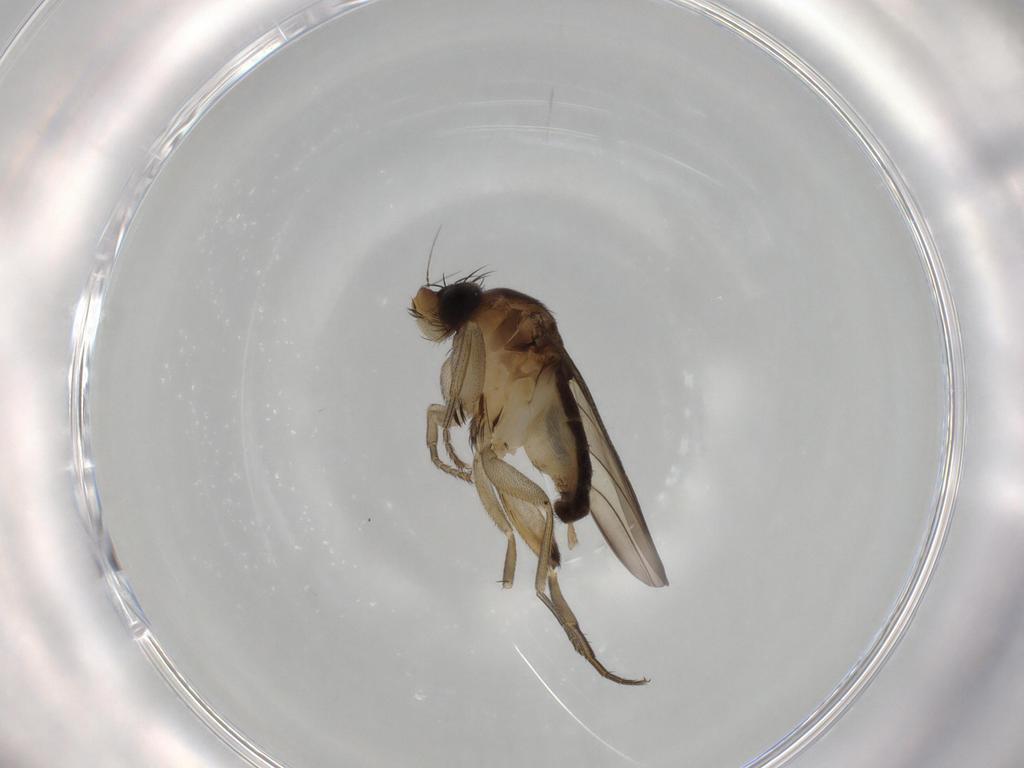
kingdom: Animalia
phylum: Arthropoda
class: Insecta
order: Diptera
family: Phoridae
